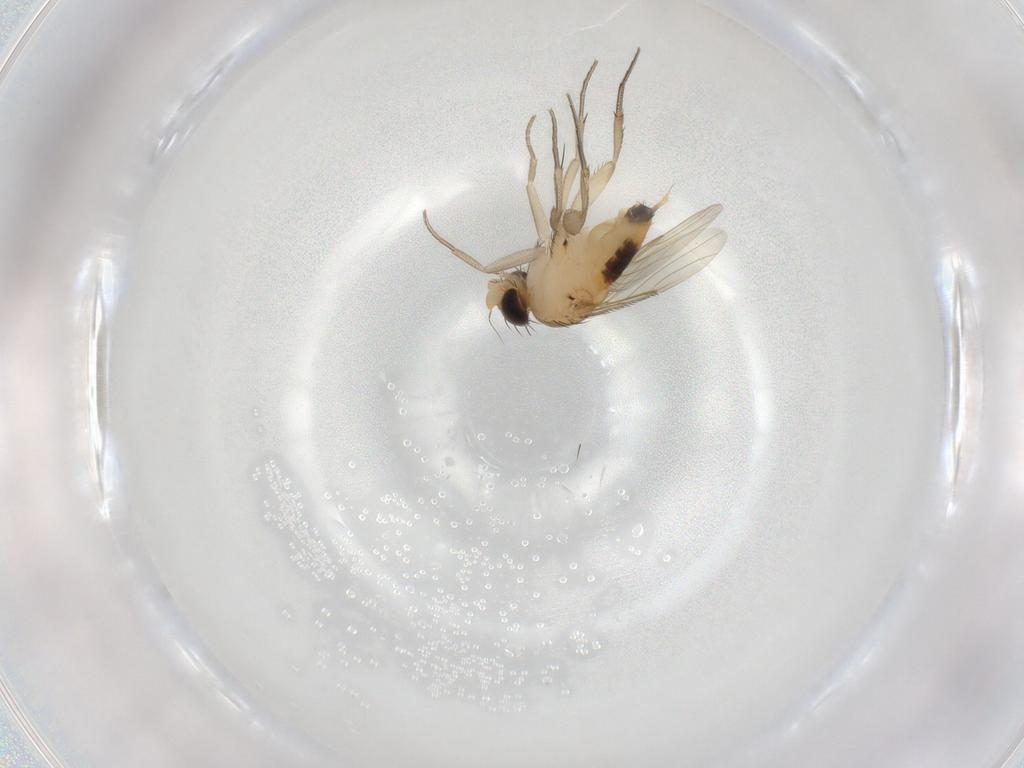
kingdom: Animalia
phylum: Arthropoda
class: Insecta
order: Diptera
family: Phoridae
